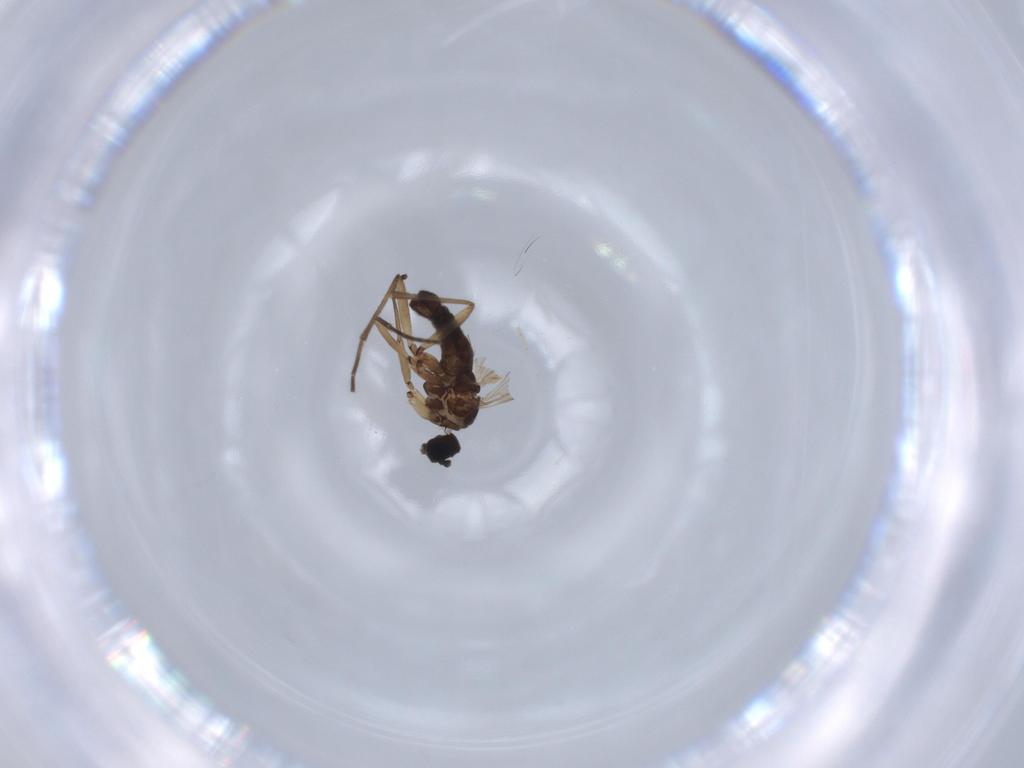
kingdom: Animalia
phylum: Arthropoda
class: Insecta
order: Diptera
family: Sciaridae
